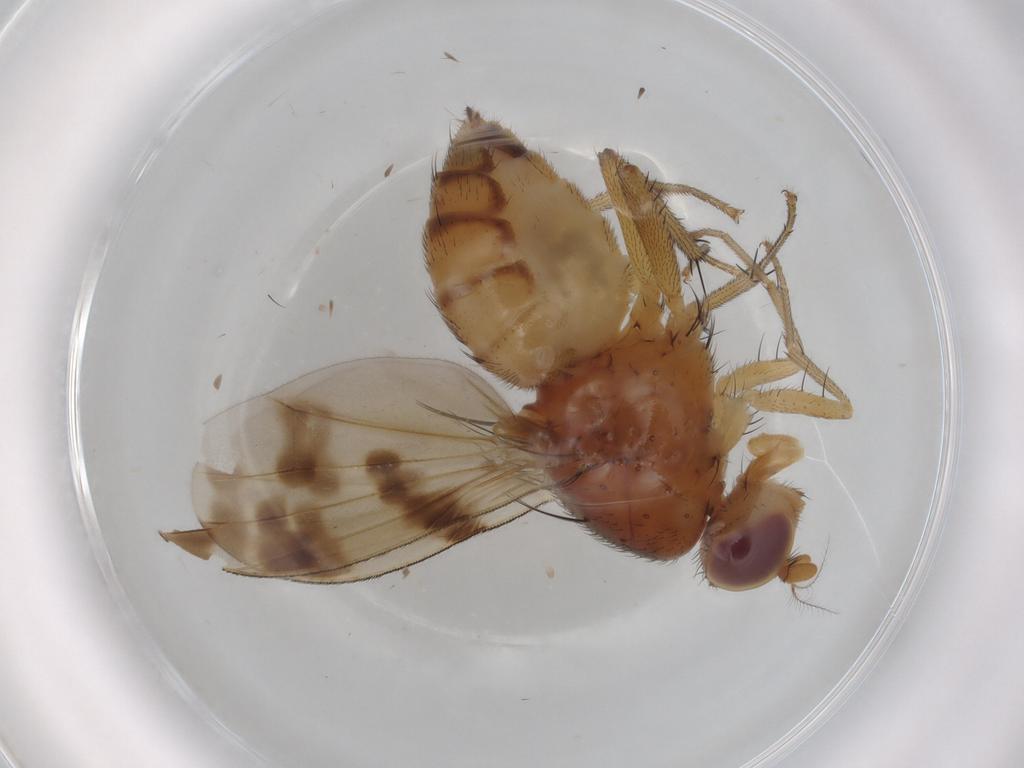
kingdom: Animalia
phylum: Arthropoda
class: Insecta
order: Diptera
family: Lauxaniidae
